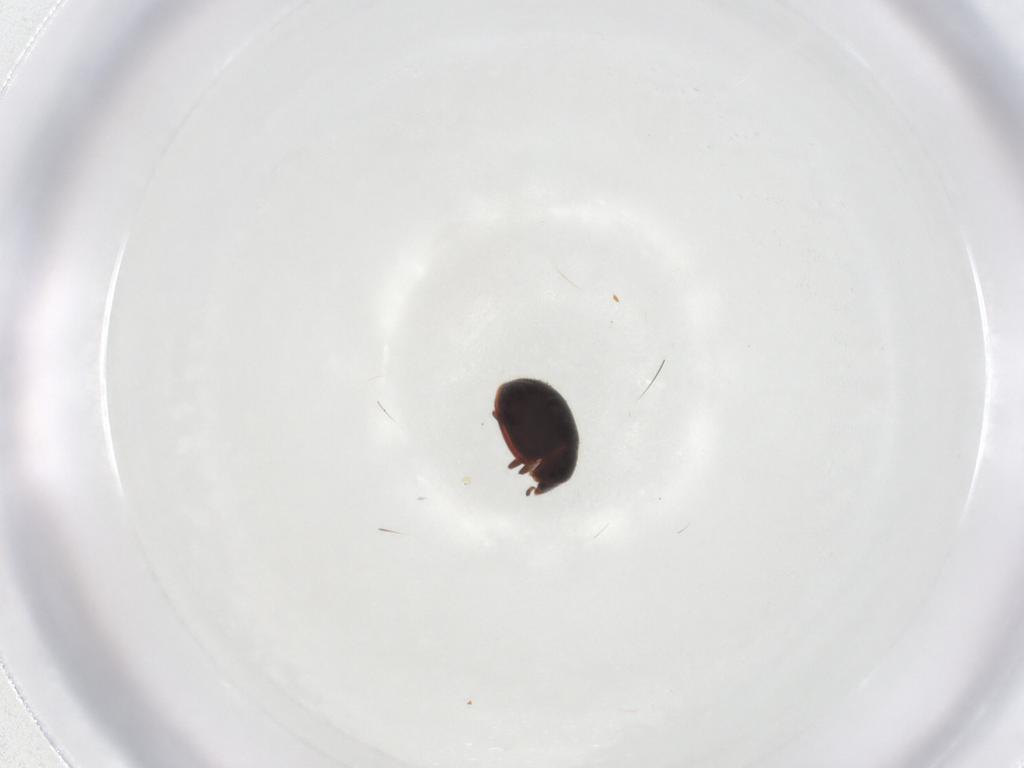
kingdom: Animalia
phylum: Arthropoda
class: Insecta
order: Coleoptera
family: Coccinellidae
